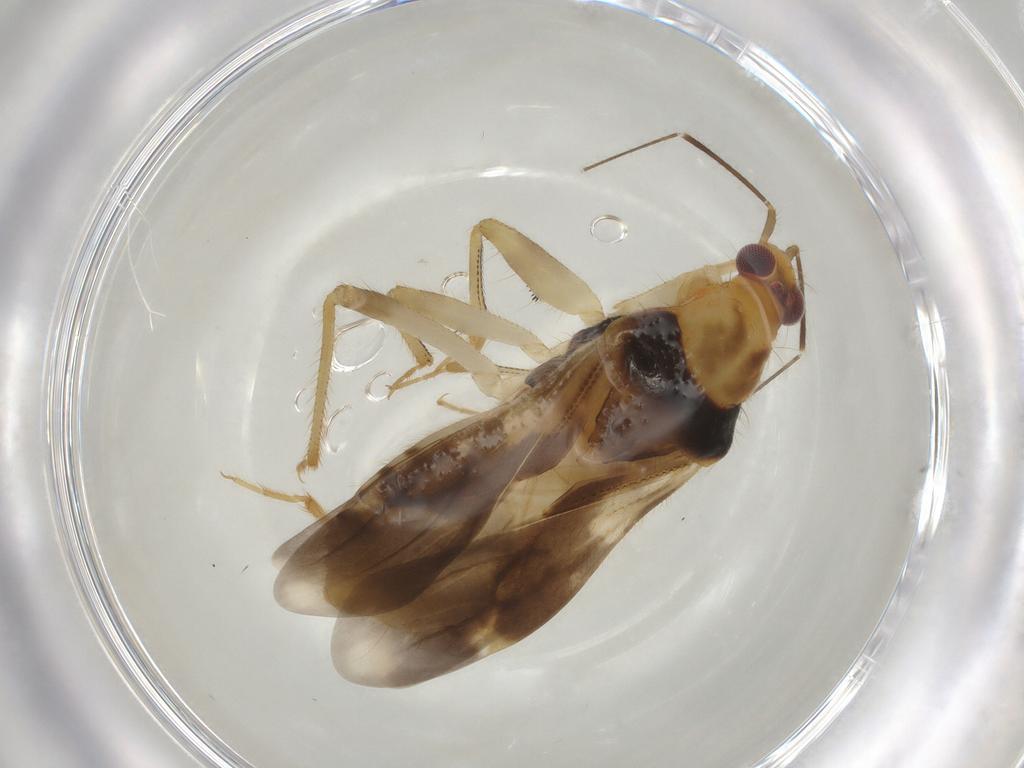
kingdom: Animalia
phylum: Arthropoda
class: Insecta
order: Hemiptera
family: Nabidae
